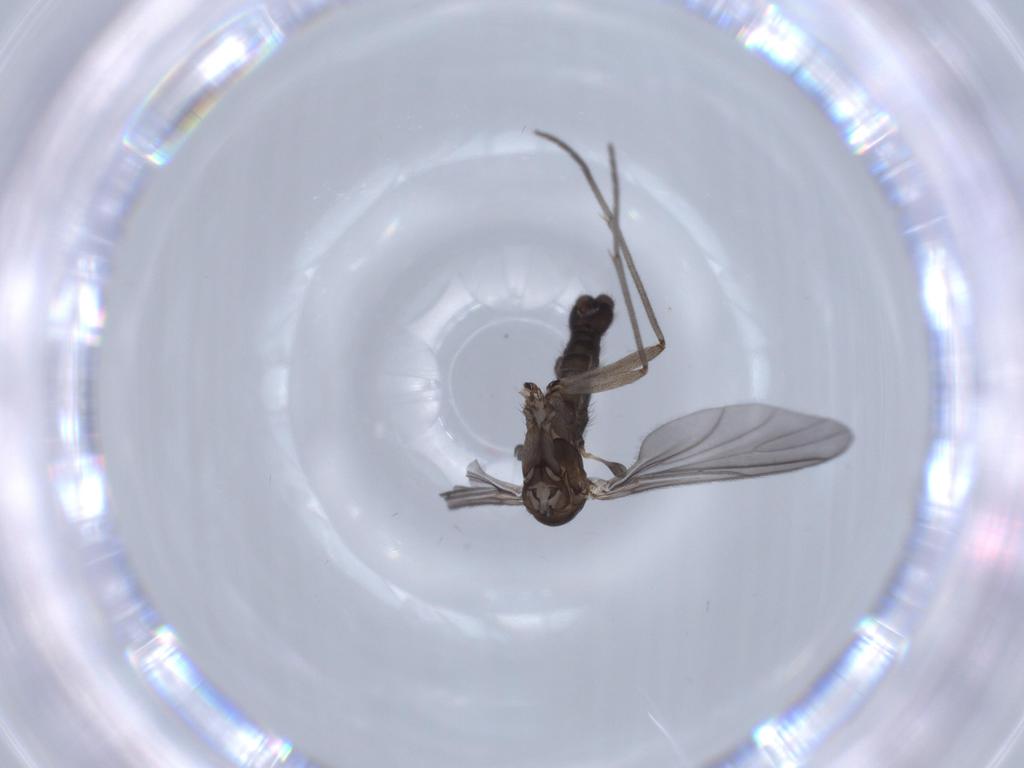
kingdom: Animalia
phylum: Arthropoda
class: Insecta
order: Diptera
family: Sciaridae
